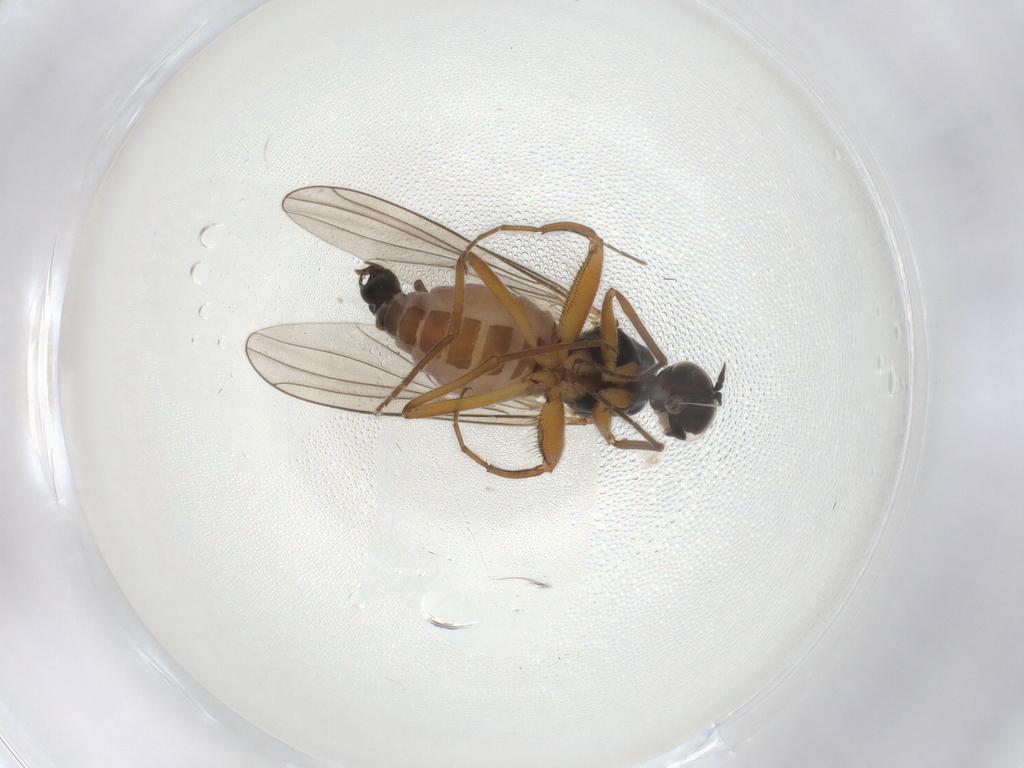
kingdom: Animalia
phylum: Arthropoda
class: Insecta
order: Diptera
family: Hybotidae
